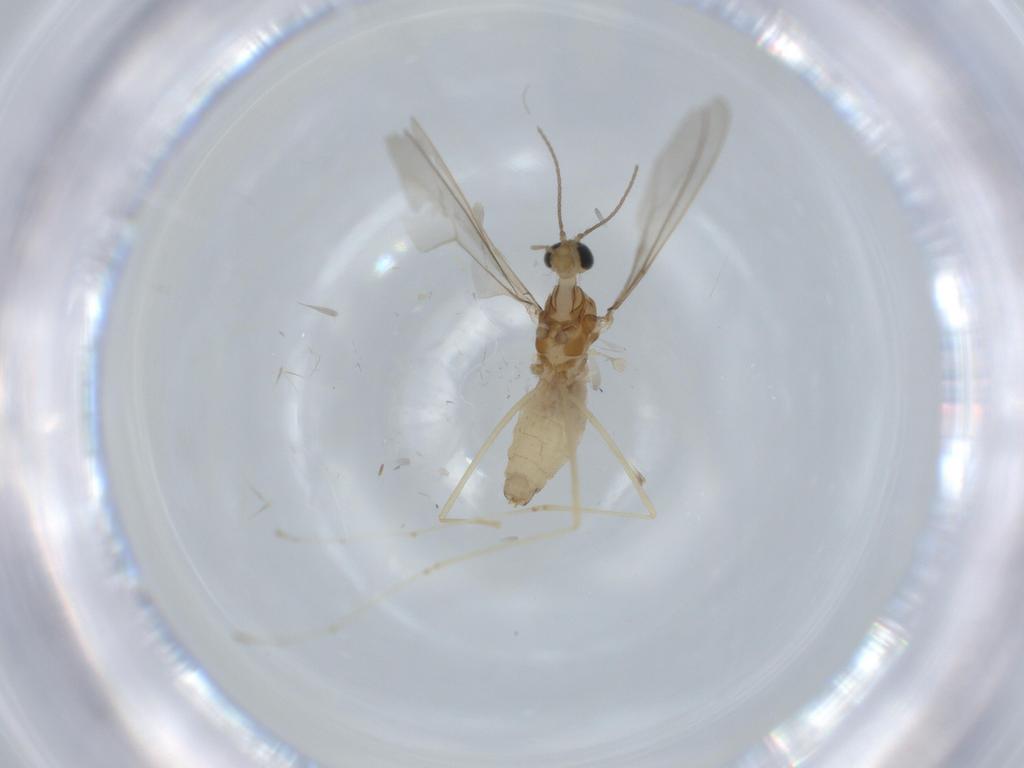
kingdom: Animalia
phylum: Arthropoda
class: Insecta
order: Diptera
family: Cecidomyiidae
